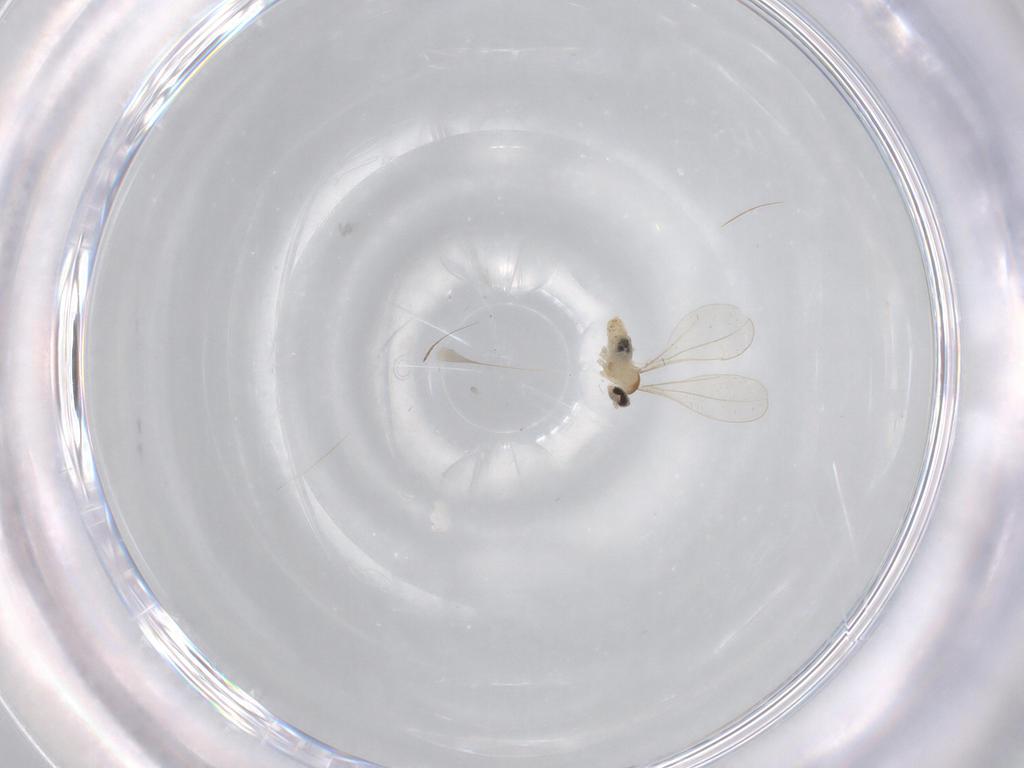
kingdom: Animalia
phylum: Arthropoda
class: Insecta
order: Diptera
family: Cecidomyiidae
